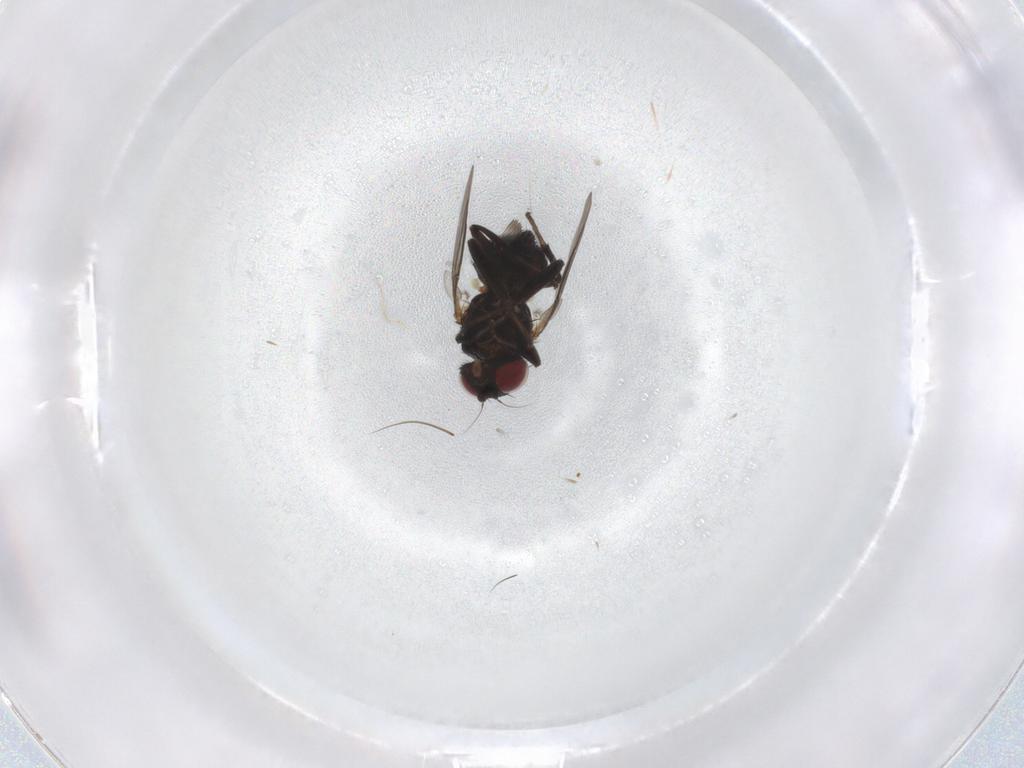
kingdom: Animalia
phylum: Arthropoda
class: Insecta
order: Diptera
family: Agromyzidae
